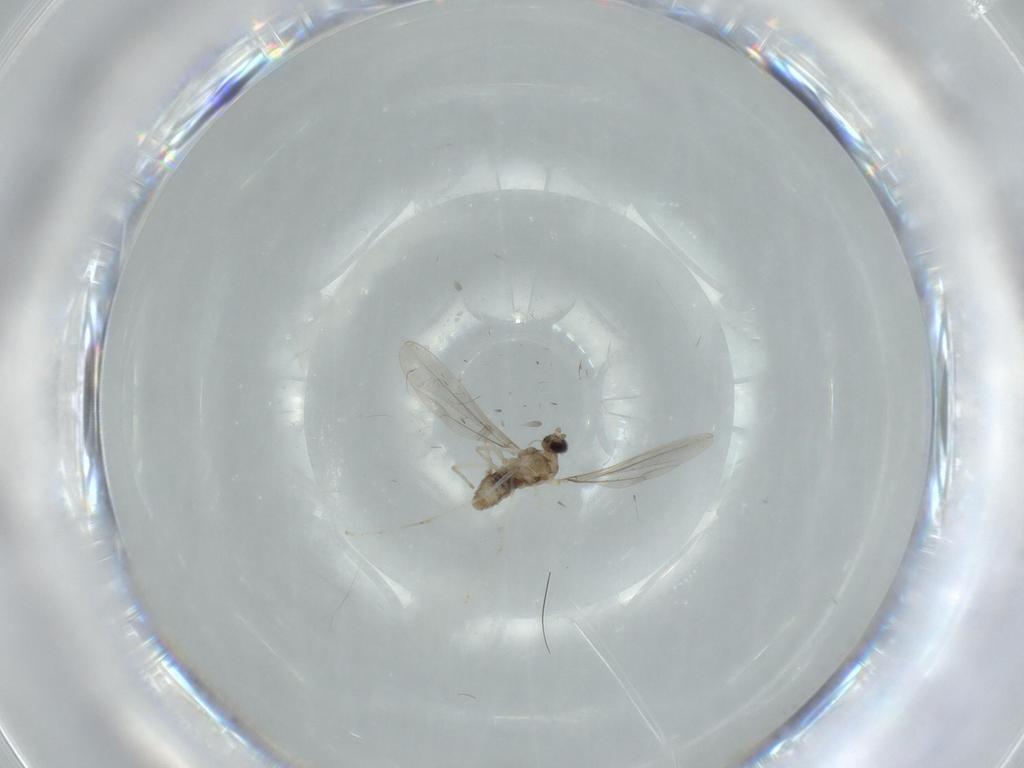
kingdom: Animalia
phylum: Arthropoda
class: Insecta
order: Diptera
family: Cecidomyiidae
